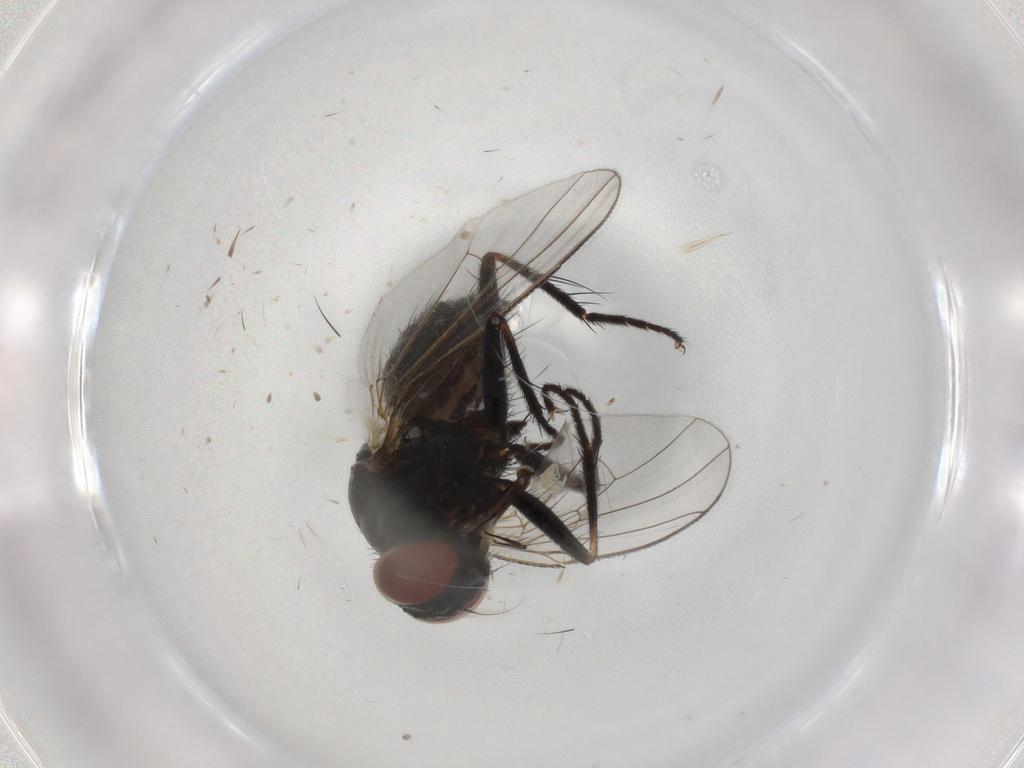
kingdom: Animalia
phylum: Arthropoda
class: Insecta
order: Diptera
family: Muscidae
